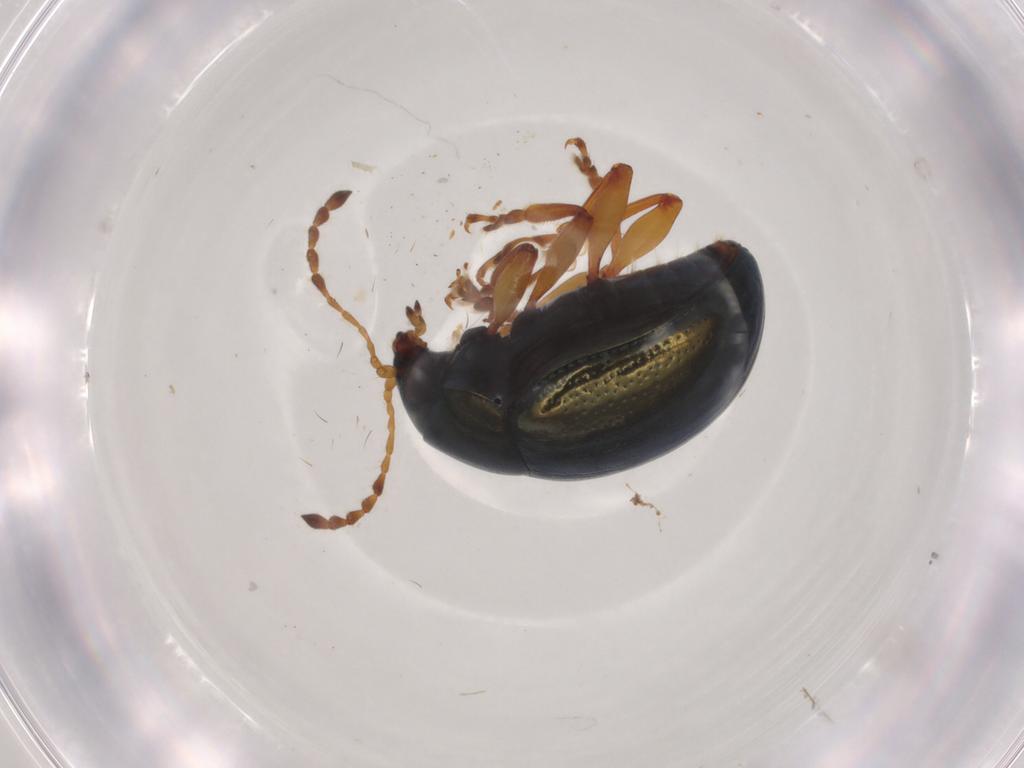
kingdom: Animalia
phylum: Arthropoda
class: Insecta
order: Coleoptera
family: Chrysomelidae
